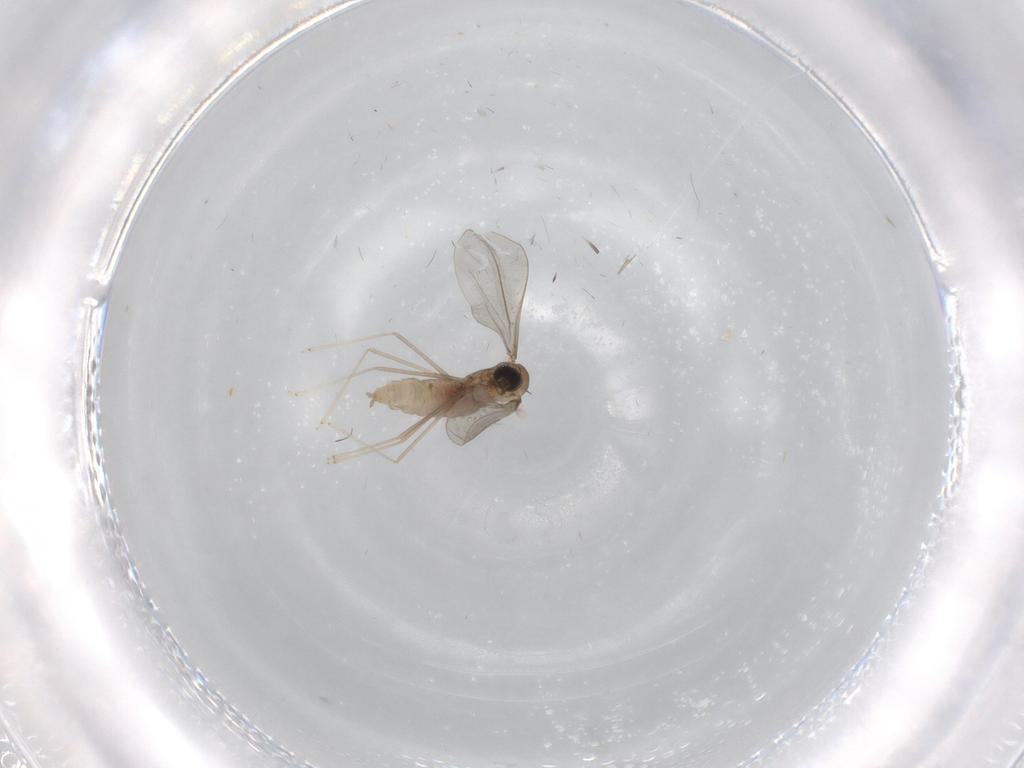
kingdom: Animalia
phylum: Arthropoda
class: Insecta
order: Diptera
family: Cecidomyiidae
